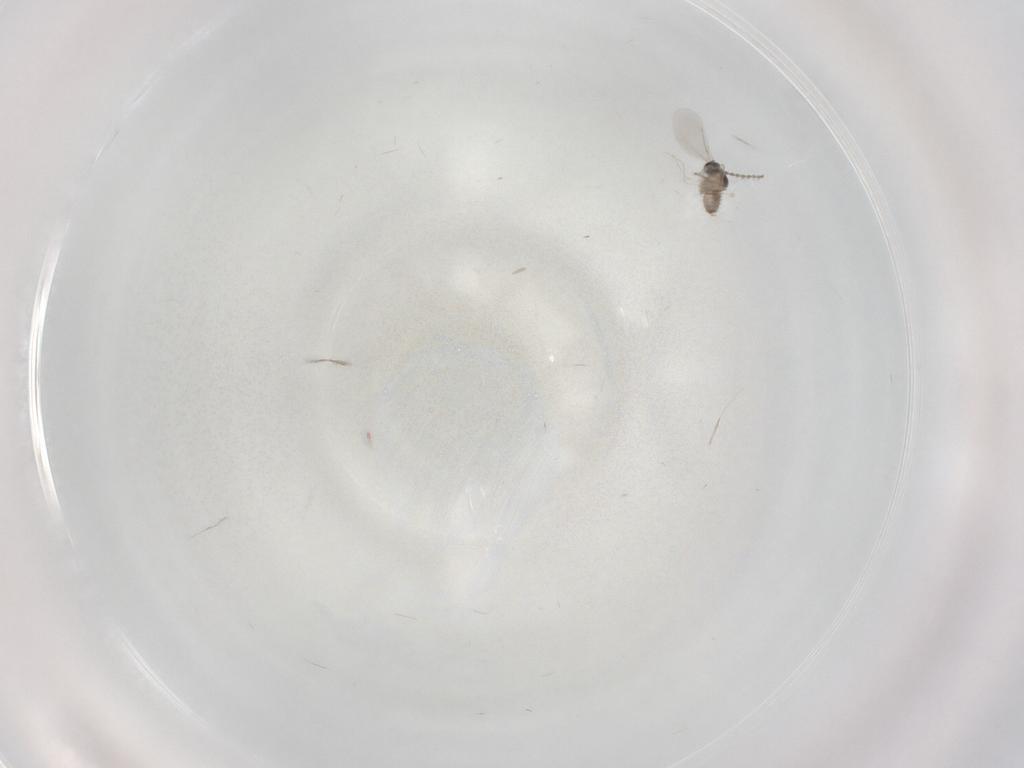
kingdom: Animalia
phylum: Arthropoda
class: Insecta
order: Diptera
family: Chironomidae
